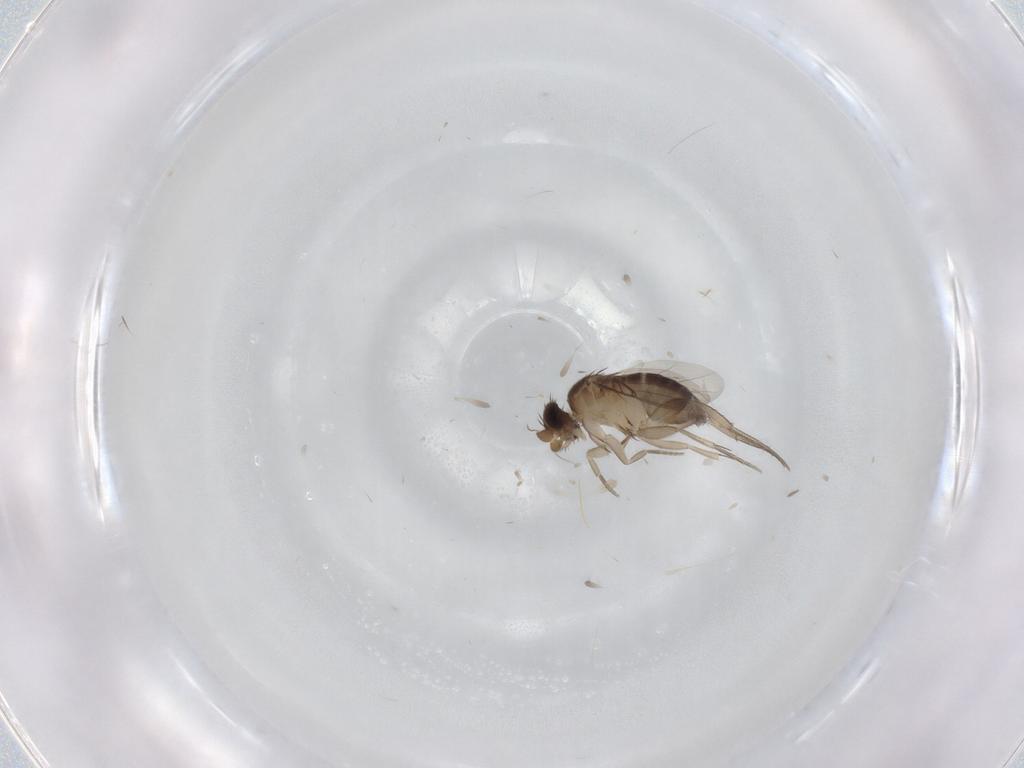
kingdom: Animalia
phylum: Arthropoda
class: Insecta
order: Diptera
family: Phoridae
